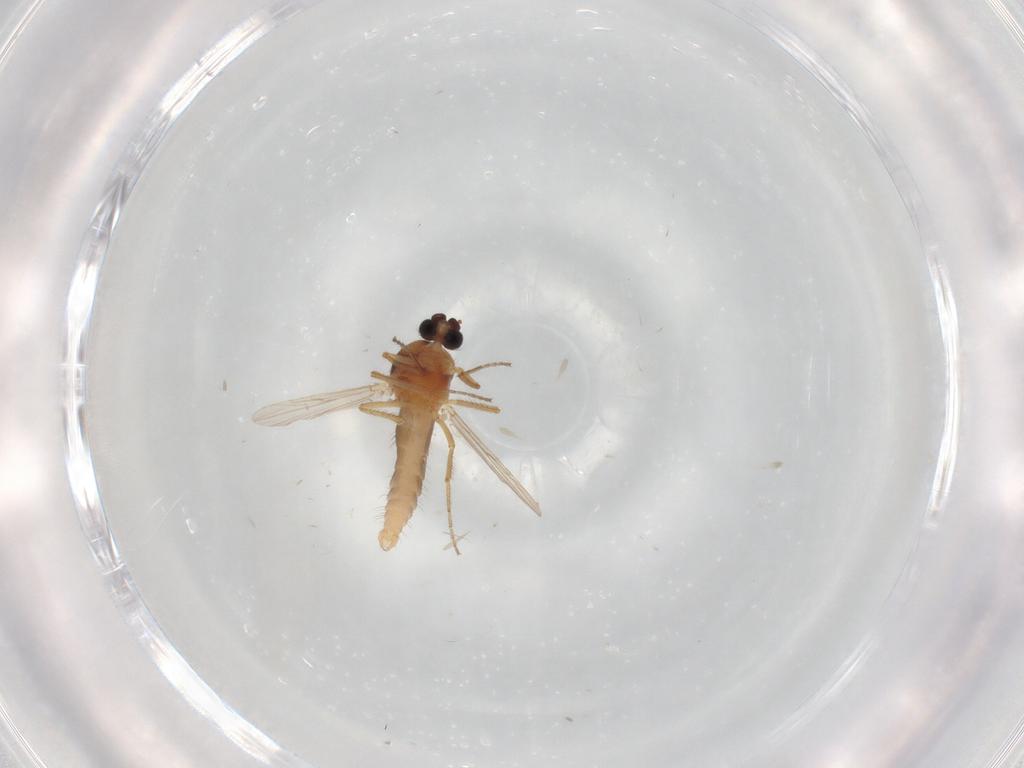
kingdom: Animalia
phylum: Arthropoda
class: Insecta
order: Diptera
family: Ceratopogonidae
